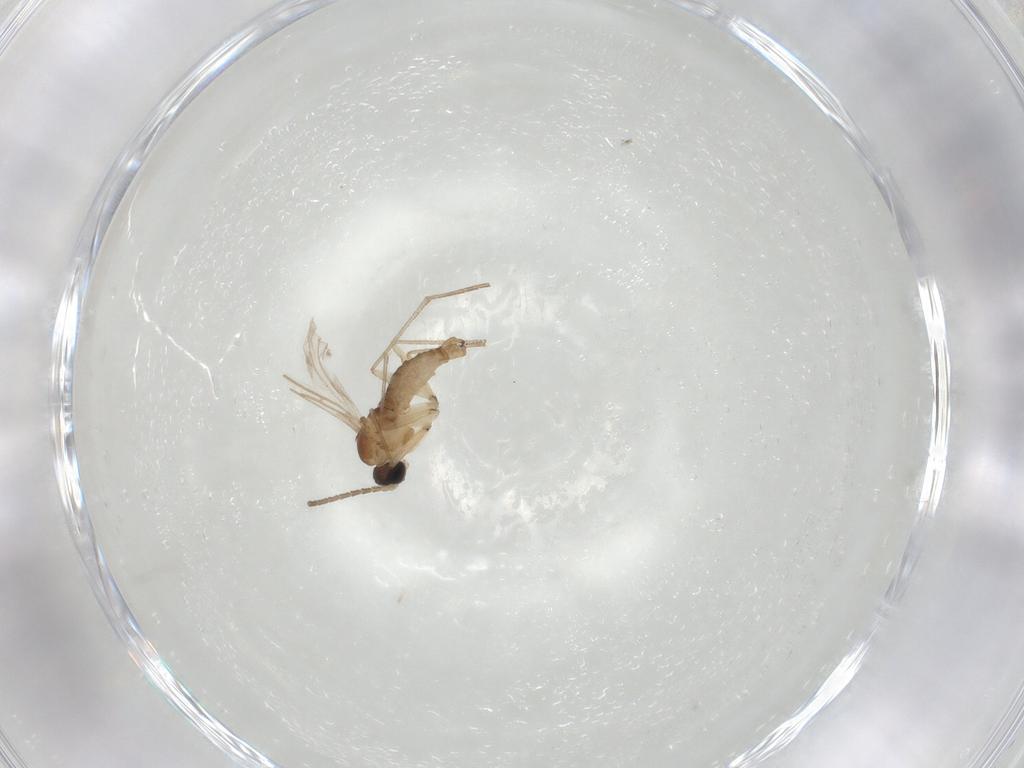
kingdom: Animalia
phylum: Arthropoda
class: Insecta
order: Diptera
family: Sciaridae
